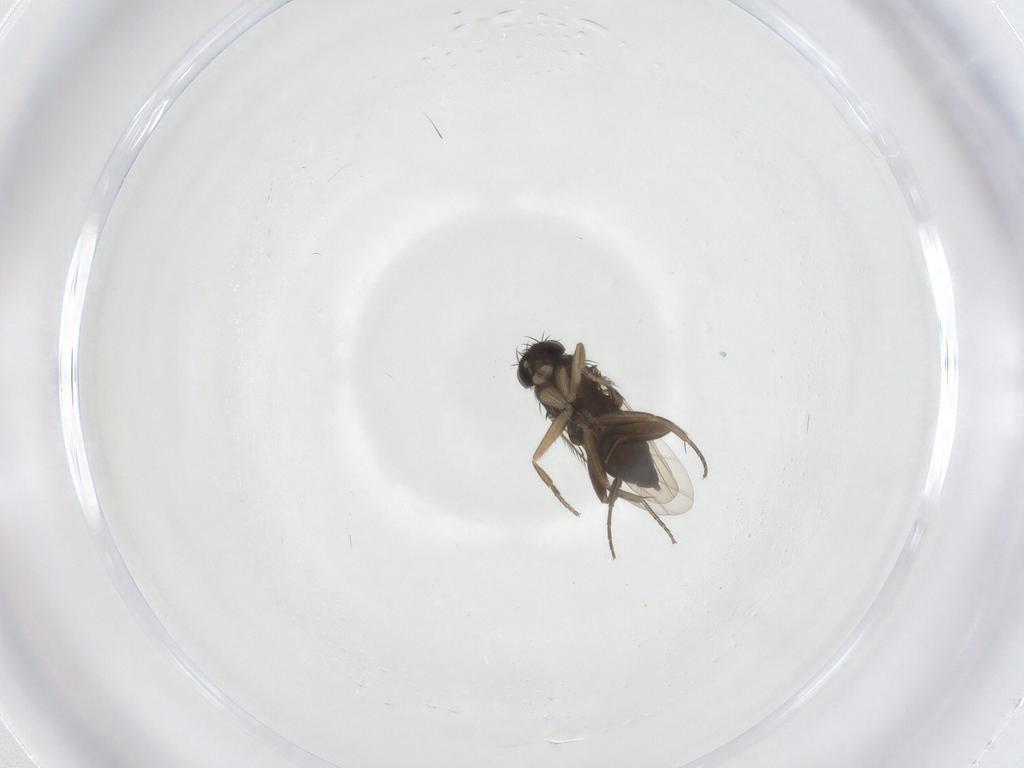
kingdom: Animalia
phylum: Arthropoda
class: Insecta
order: Diptera
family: Phoridae
